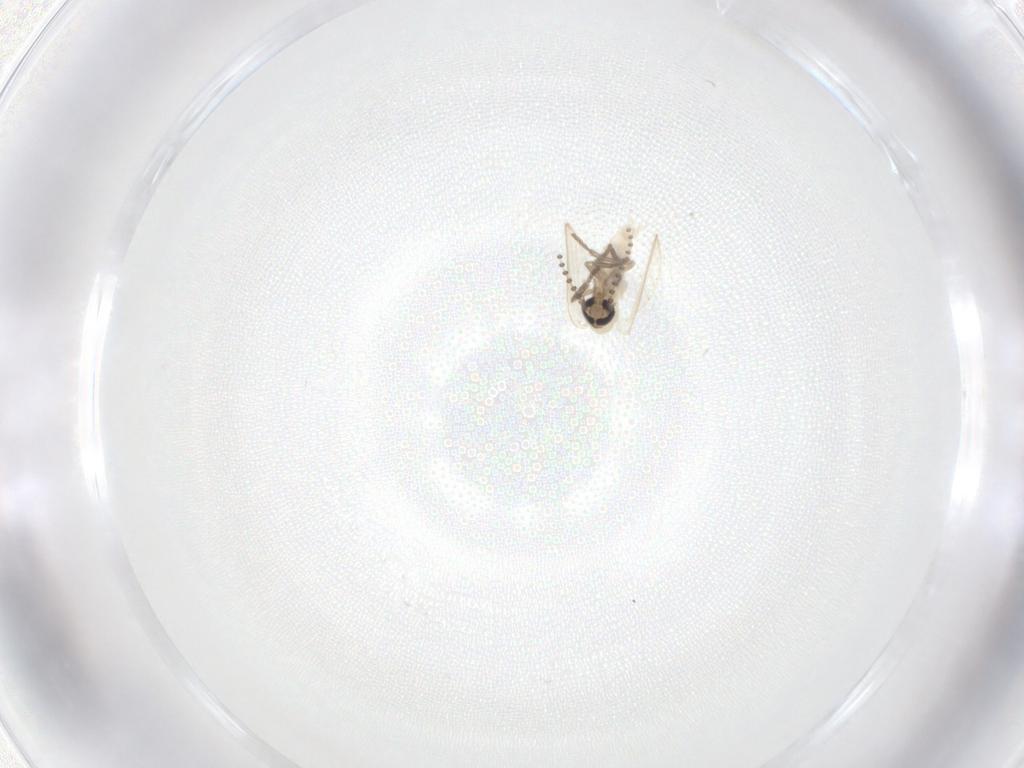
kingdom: Animalia
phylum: Arthropoda
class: Insecta
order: Diptera
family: Psychodidae
